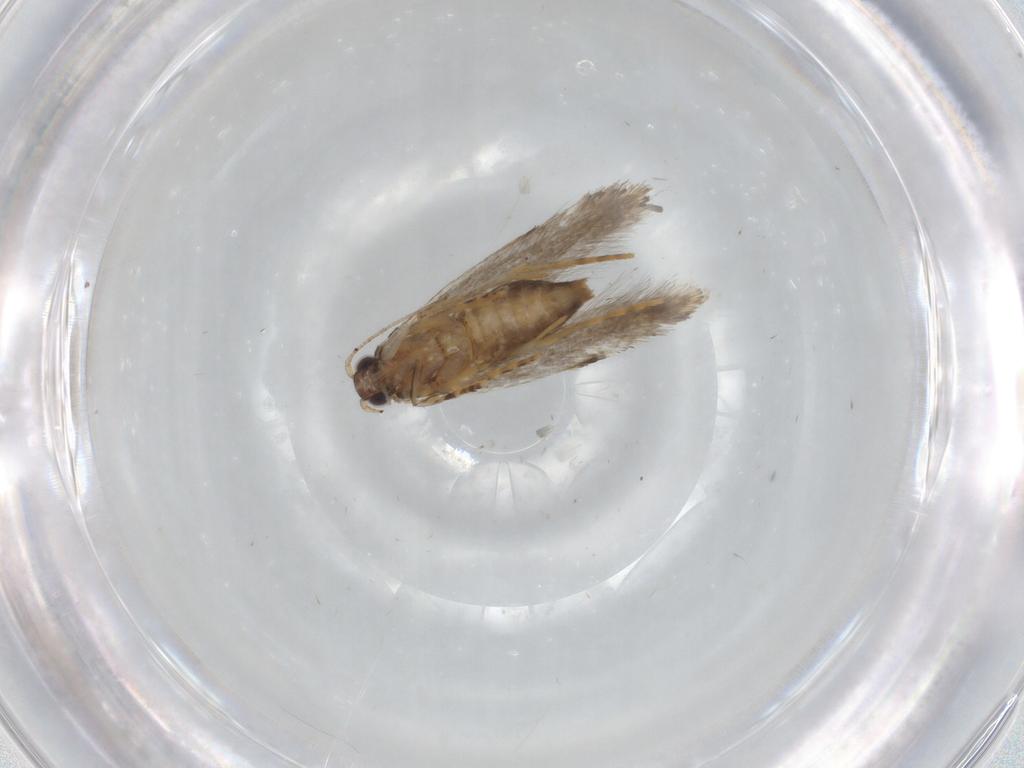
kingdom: Animalia
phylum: Arthropoda
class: Insecta
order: Lepidoptera
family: Tineidae
